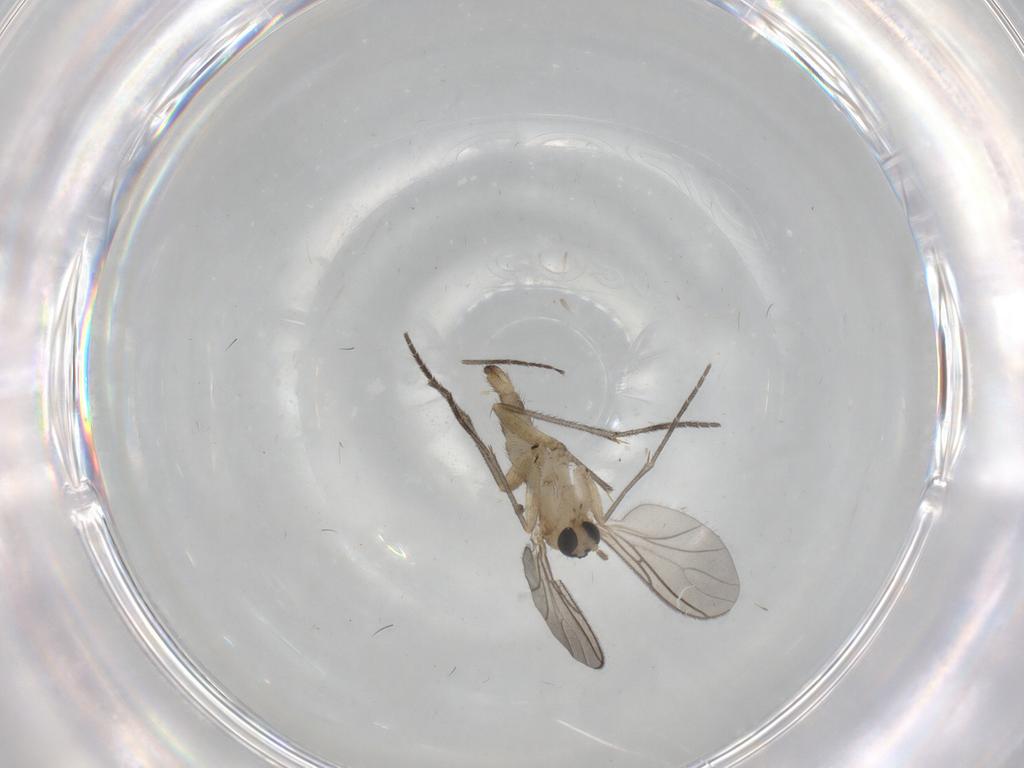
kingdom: Animalia
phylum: Arthropoda
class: Insecta
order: Diptera
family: Sciaridae
